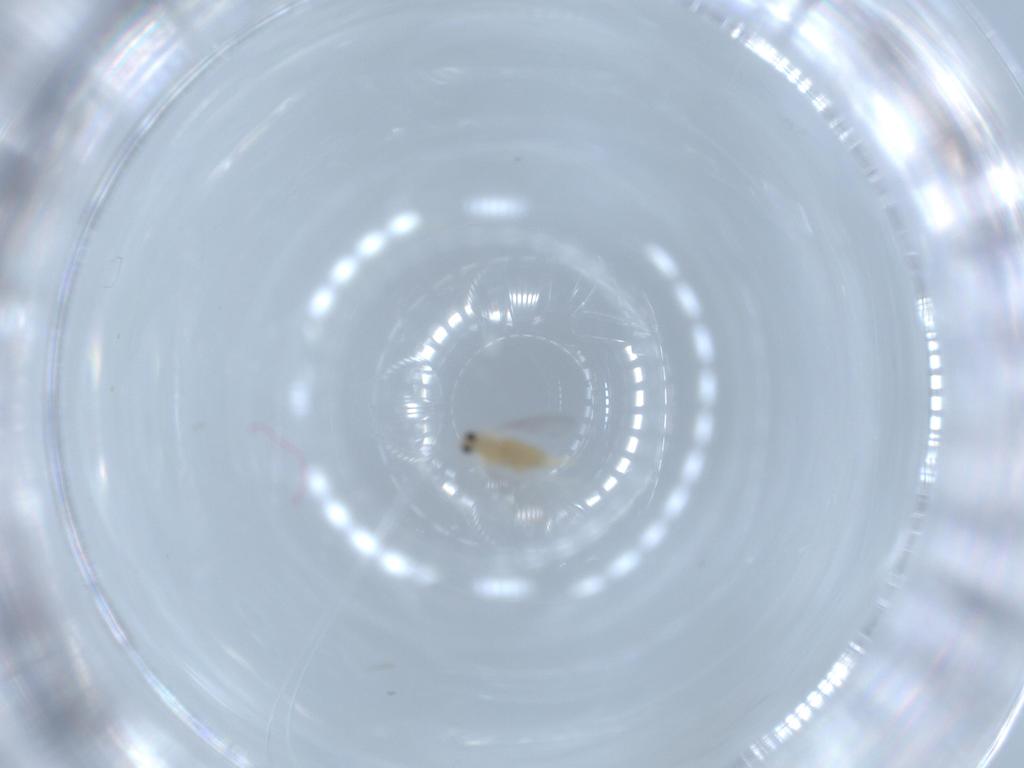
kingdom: Animalia
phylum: Arthropoda
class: Insecta
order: Diptera
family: Cecidomyiidae
